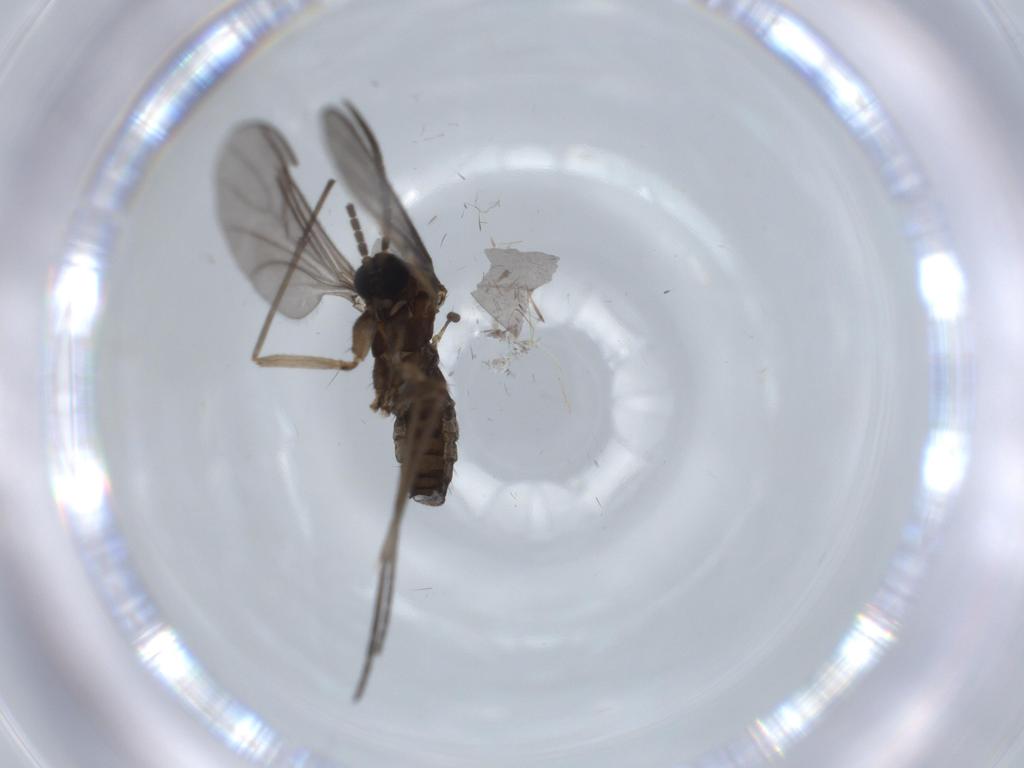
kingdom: Animalia
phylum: Arthropoda
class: Insecta
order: Diptera
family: Sciaridae
